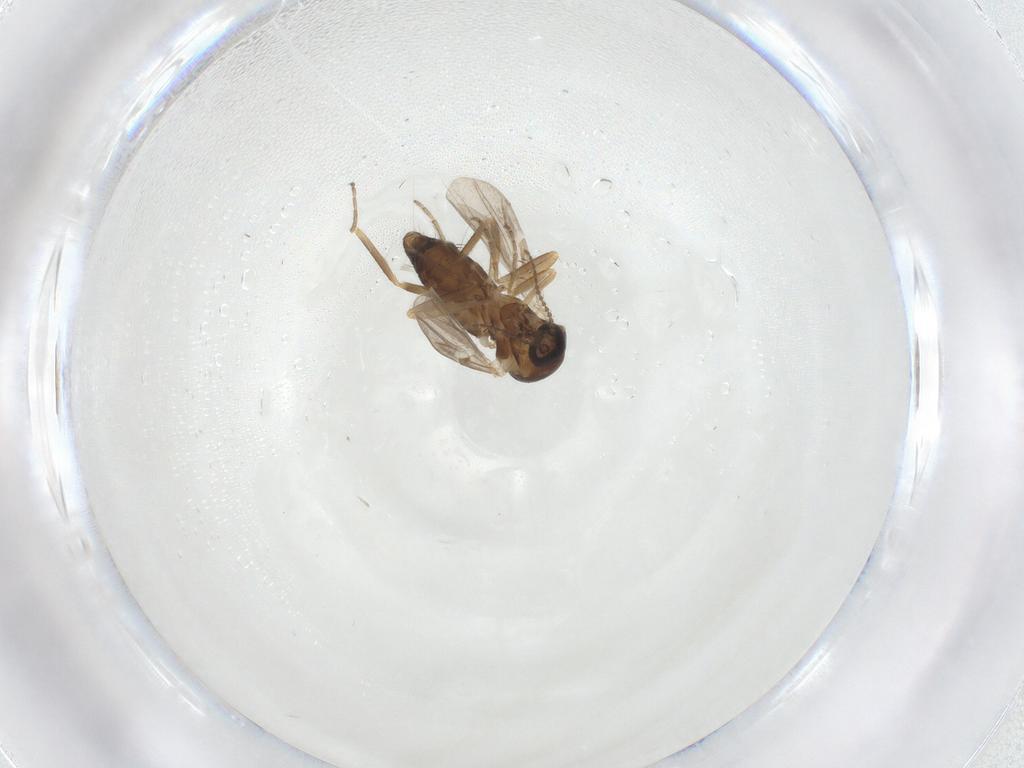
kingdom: Animalia
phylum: Arthropoda
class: Insecta
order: Diptera
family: Ceratopogonidae
